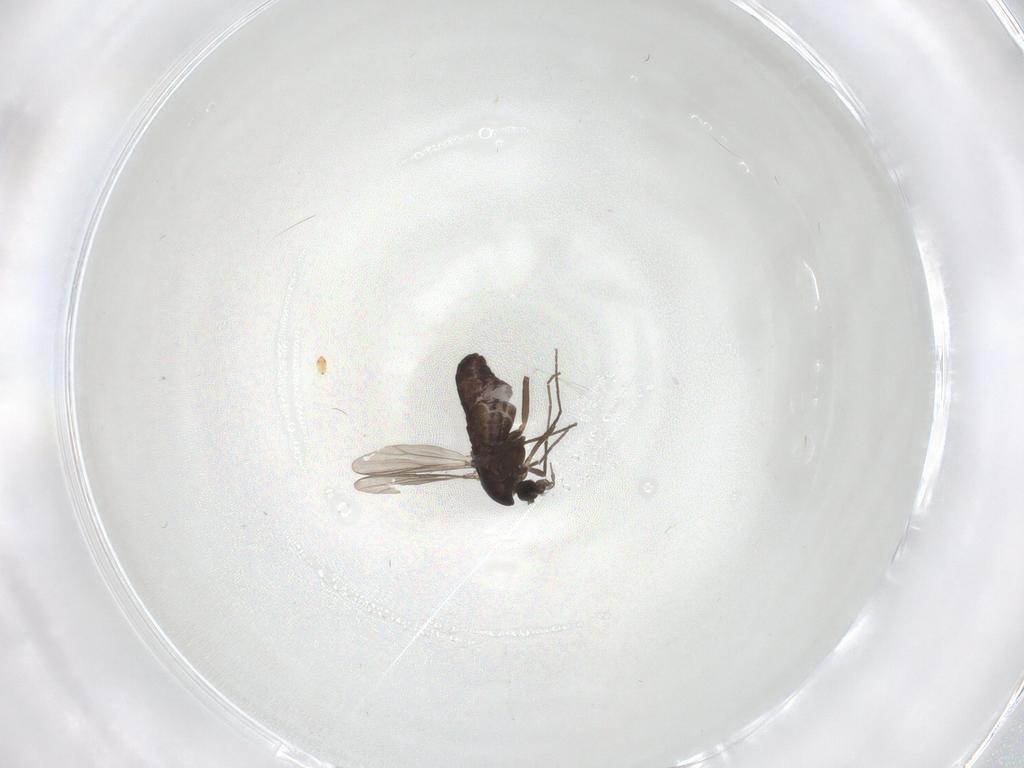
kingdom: Animalia
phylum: Arthropoda
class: Insecta
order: Diptera
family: Chironomidae
